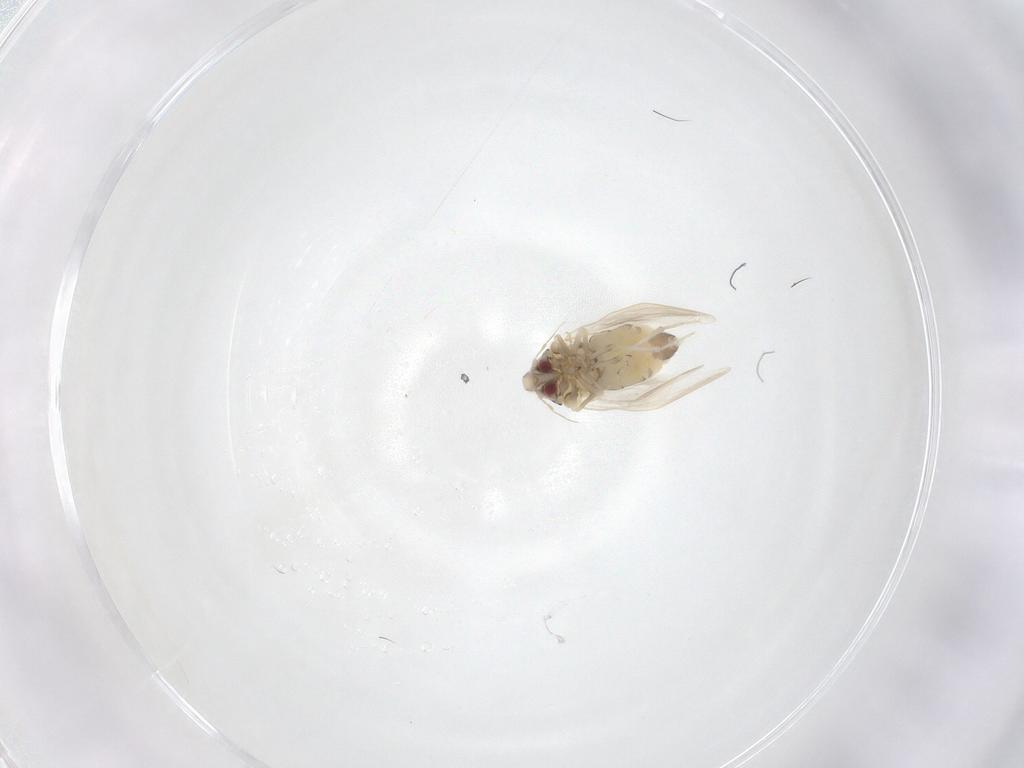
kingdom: Animalia
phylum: Arthropoda
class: Insecta
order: Hemiptera
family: Aleyrodidae
